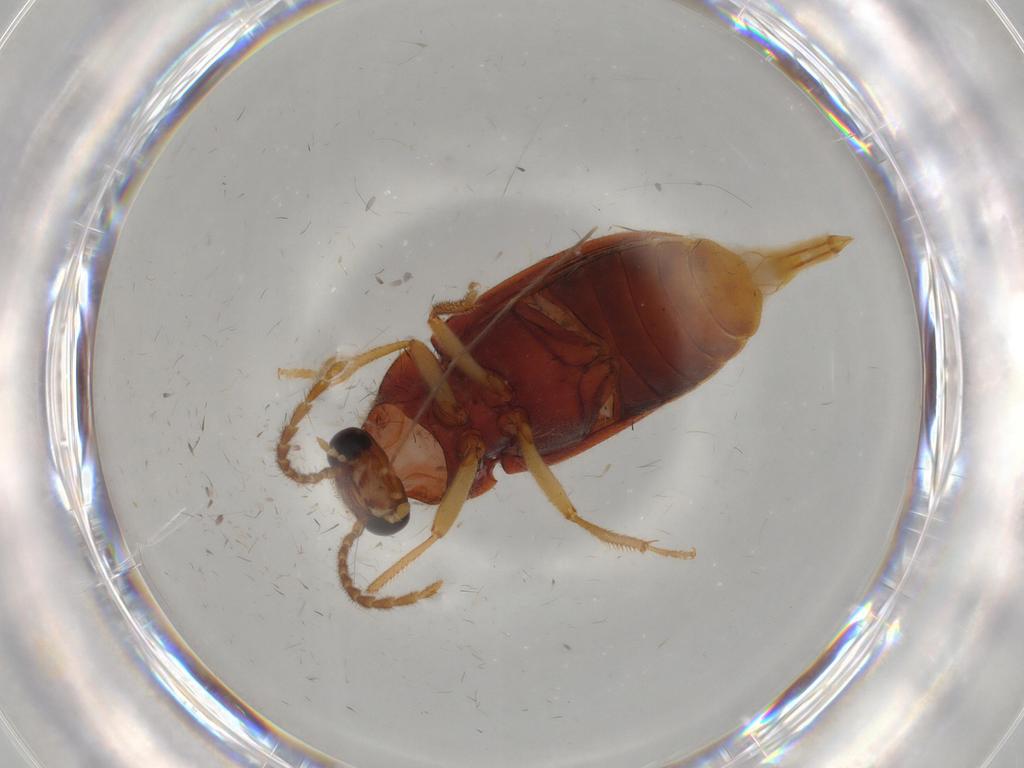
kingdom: Animalia
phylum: Arthropoda
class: Insecta
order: Coleoptera
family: Ptilodactylidae
